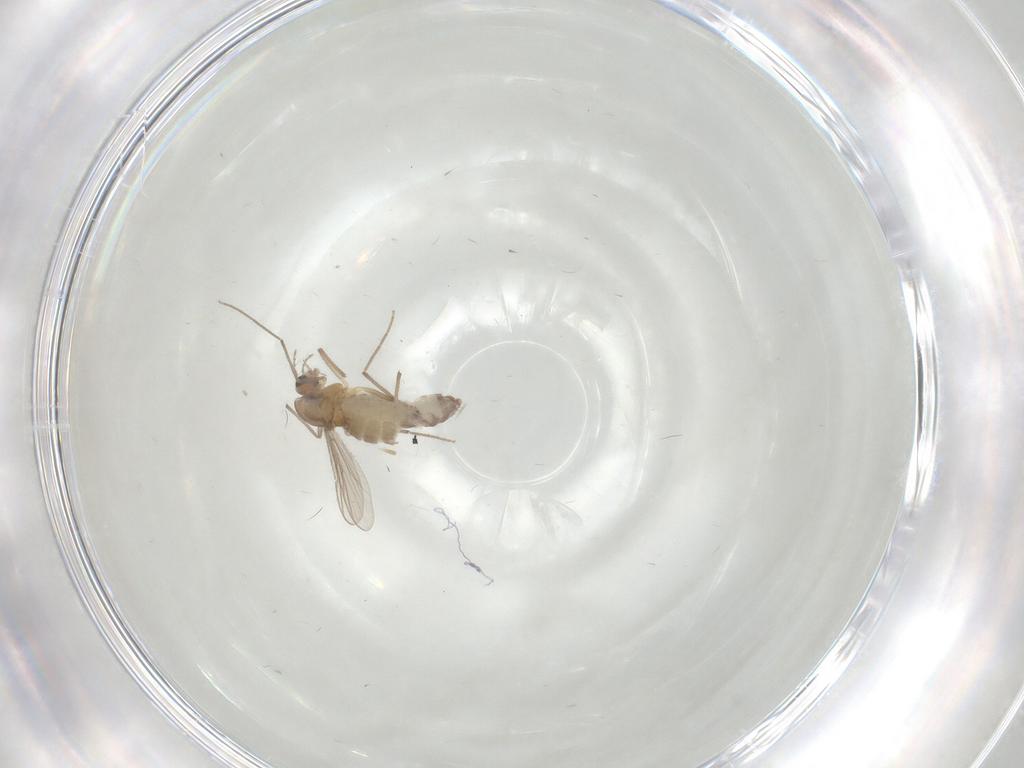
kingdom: Animalia
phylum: Arthropoda
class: Insecta
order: Diptera
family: Chironomidae
